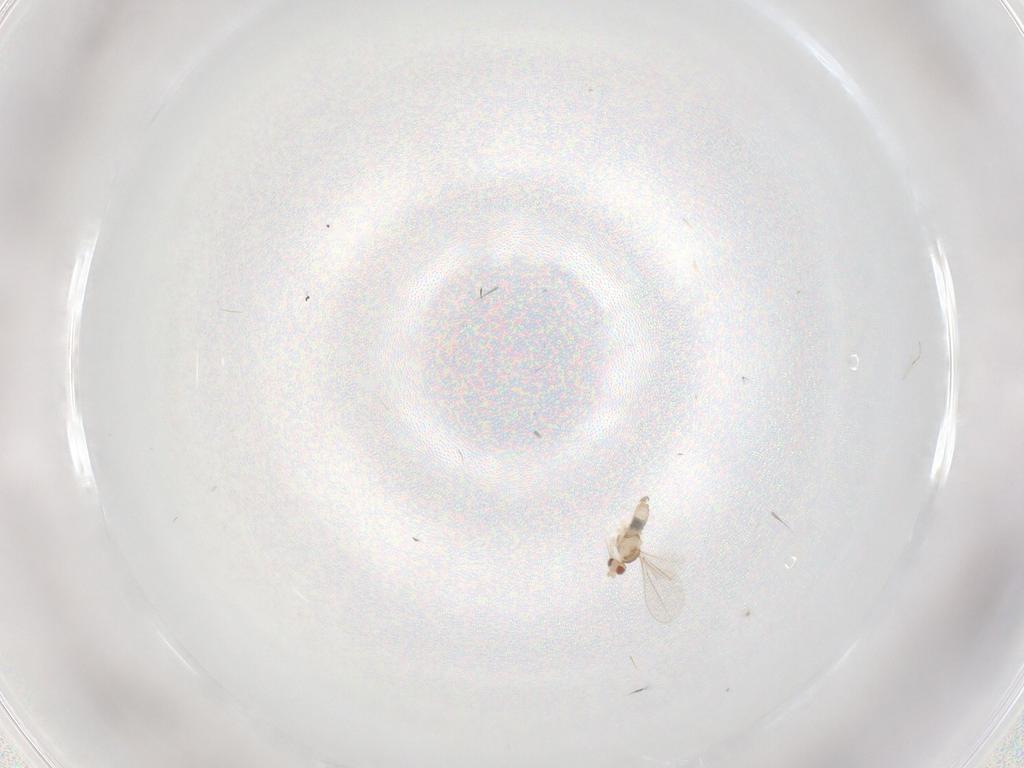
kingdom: Animalia
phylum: Arthropoda
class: Insecta
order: Diptera
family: Cecidomyiidae
